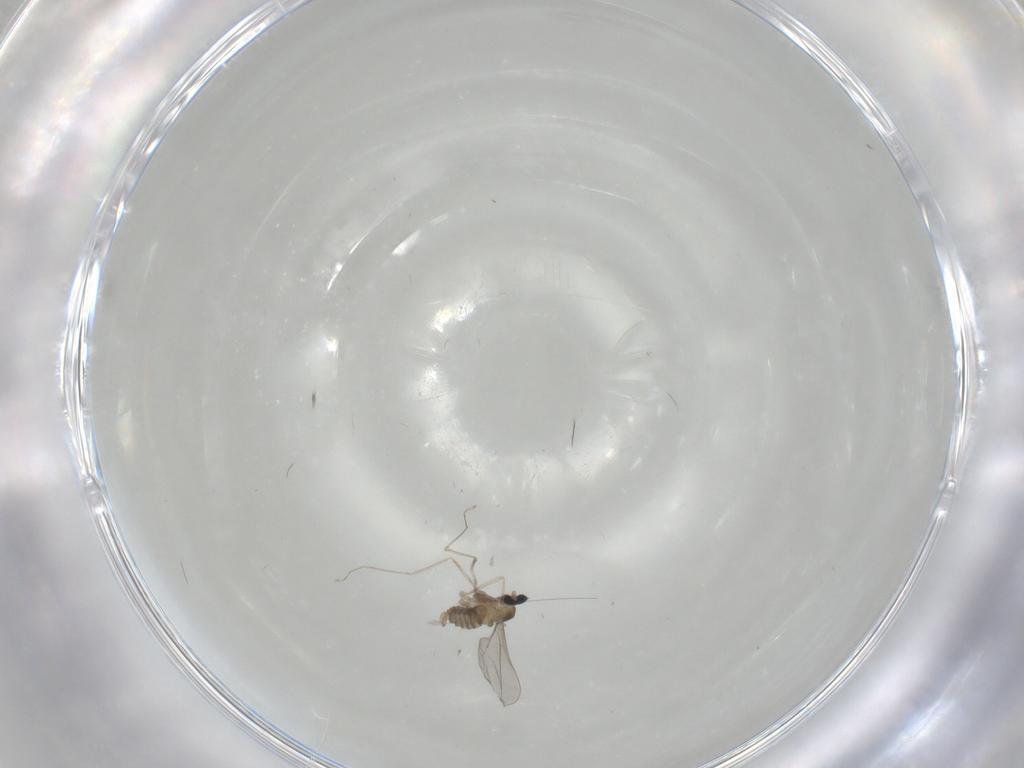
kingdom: Animalia
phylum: Arthropoda
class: Insecta
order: Diptera
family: Cecidomyiidae
